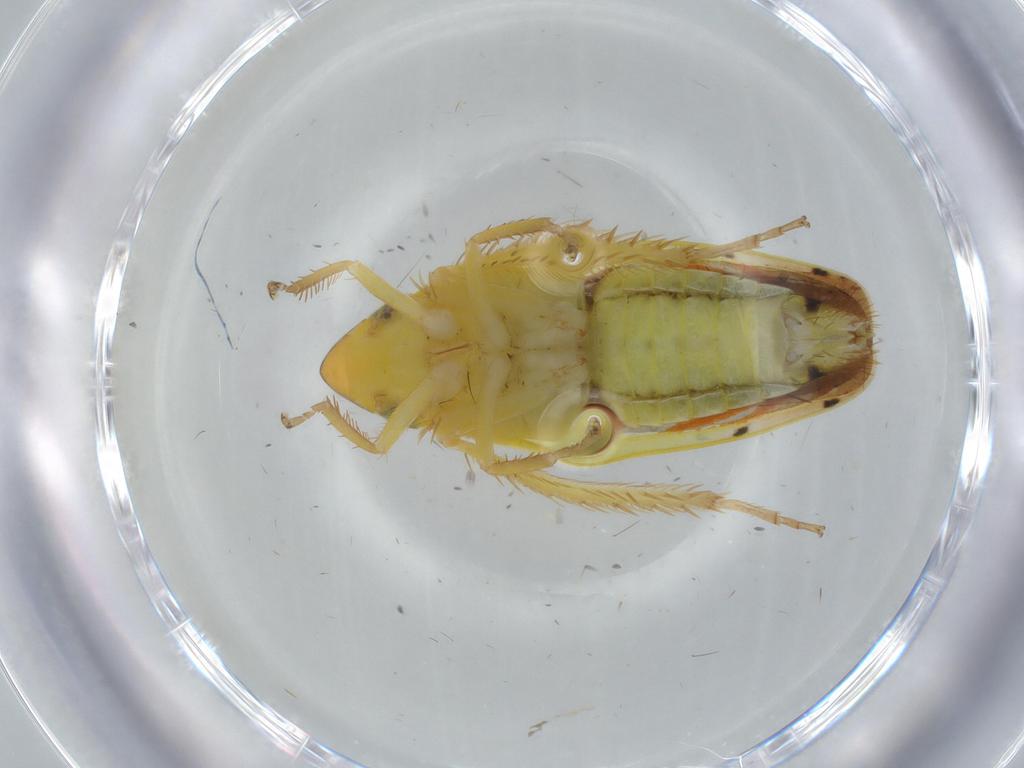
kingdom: Animalia
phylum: Arthropoda
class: Insecta
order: Hemiptera
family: Cicadellidae
